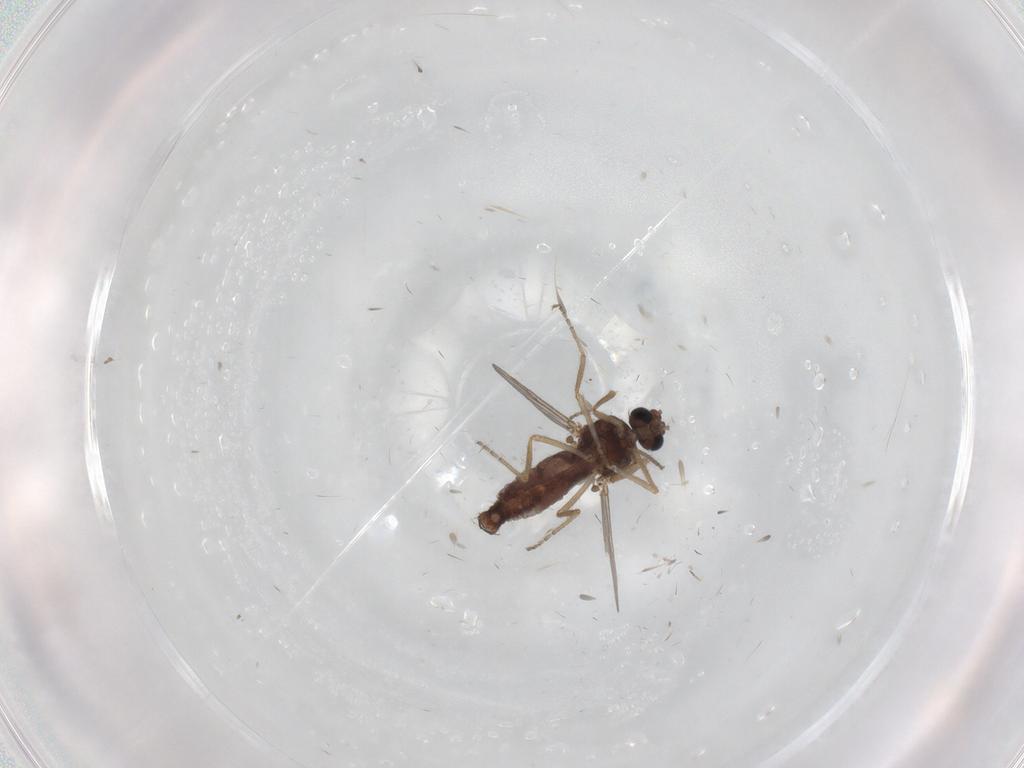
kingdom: Animalia
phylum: Arthropoda
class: Insecta
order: Diptera
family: Ceratopogonidae
